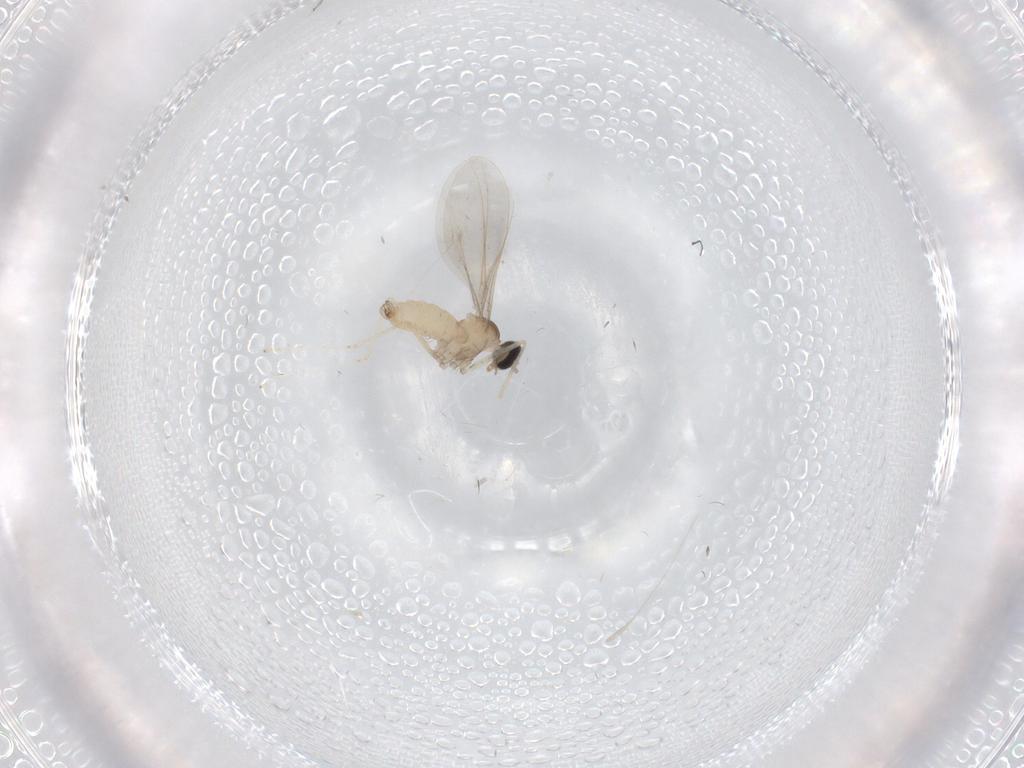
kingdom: Animalia
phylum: Arthropoda
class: Insecta
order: Diptera
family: Cecidomyiidae
